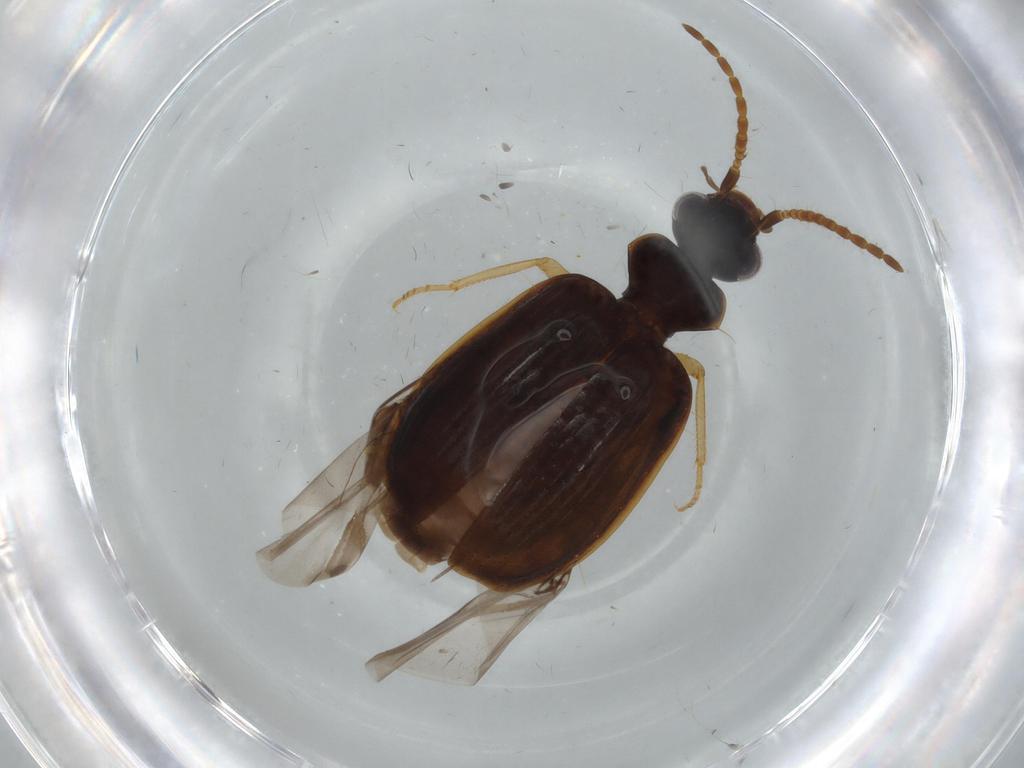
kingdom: Animalia
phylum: Arthropoda
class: Insecta
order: Coleoptera
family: Carabidae
